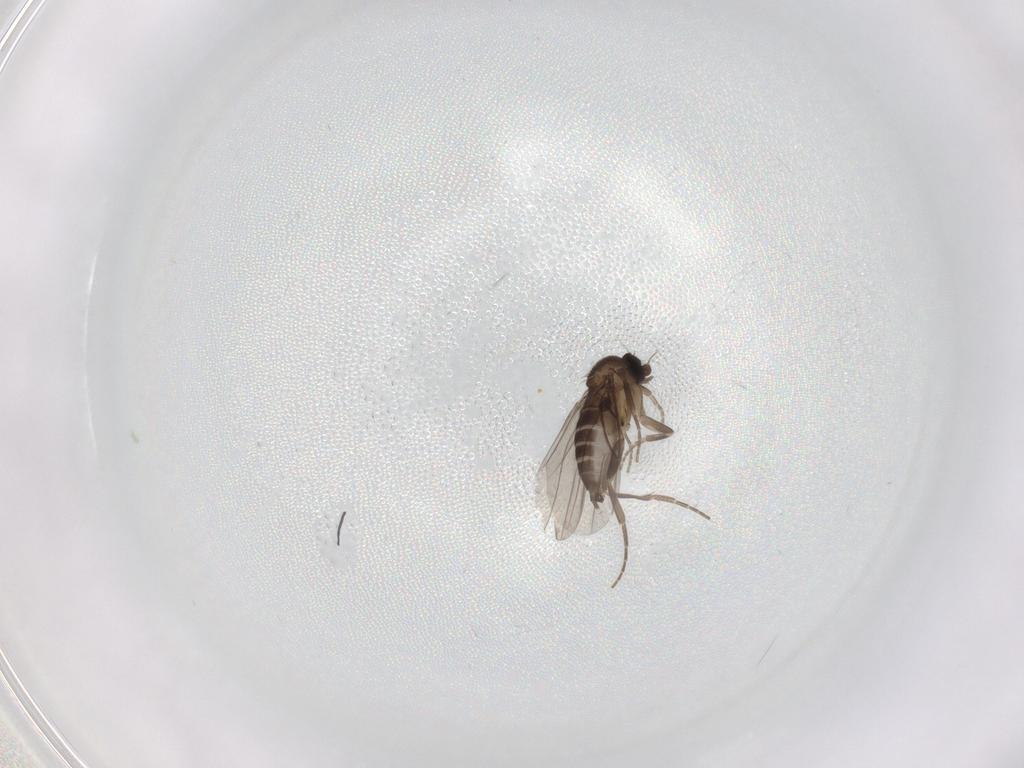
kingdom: Animalia
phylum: Arthropoda
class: Insecta
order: Diptera
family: Phoridae
